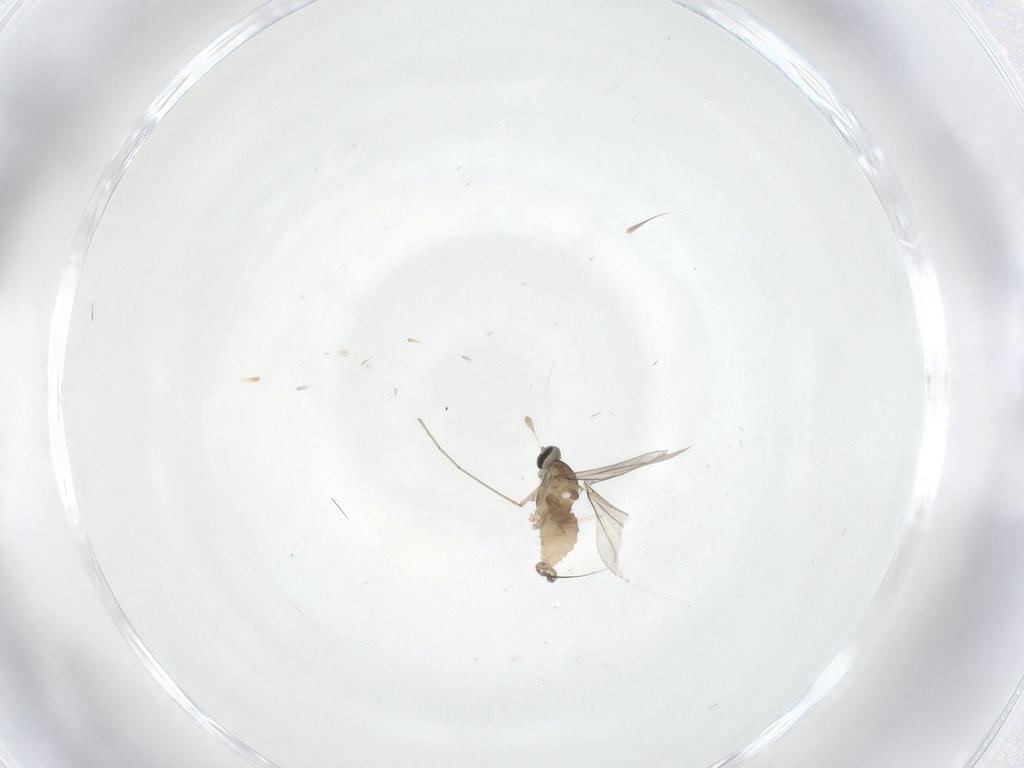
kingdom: Animalia
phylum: Arthropoda
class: Insecta
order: Diptera
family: Cecidomyiidae
